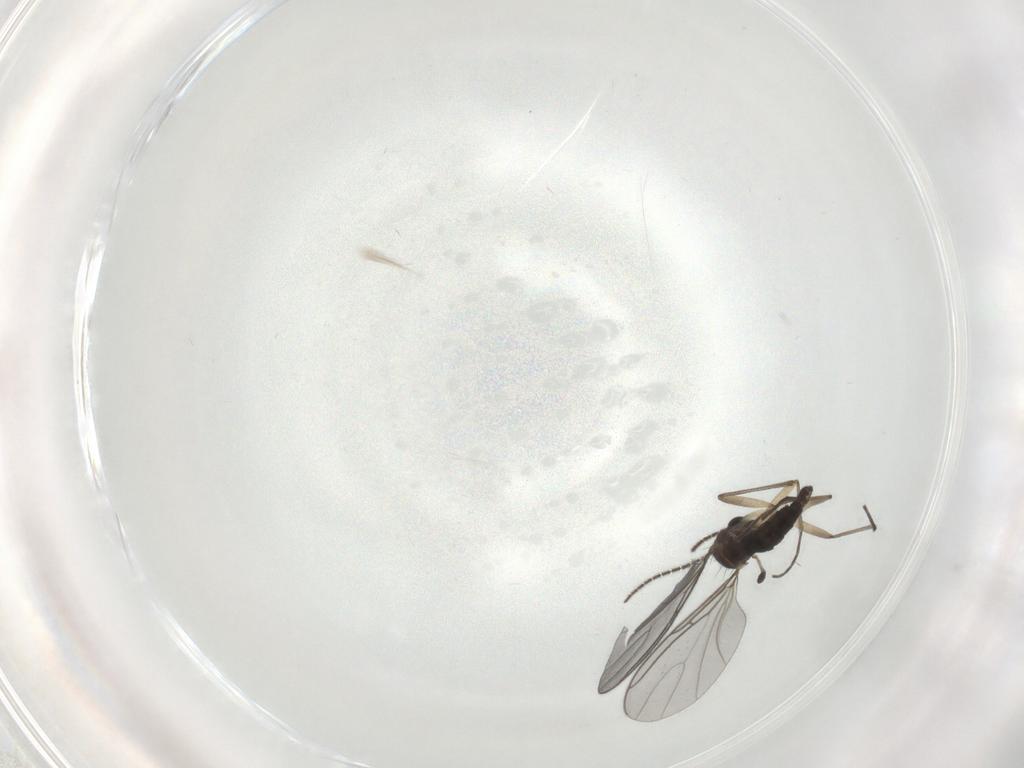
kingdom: Animalia
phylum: Arthropoda
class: Insecta
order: Diptera
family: Sciaridae
